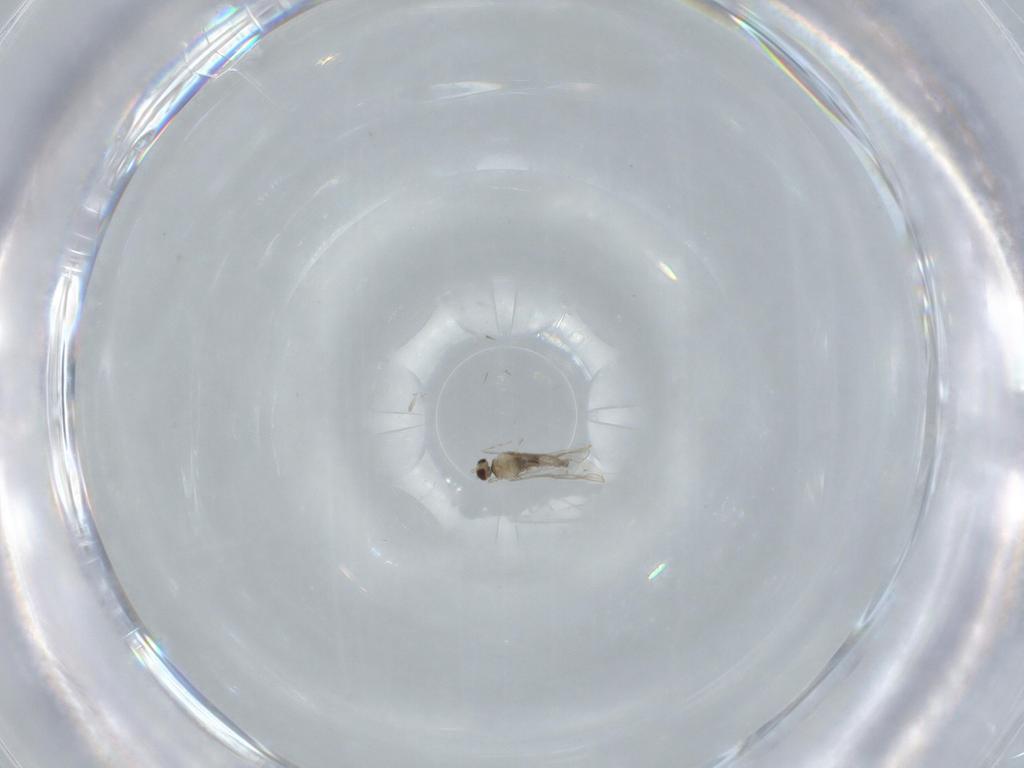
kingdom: Animalia
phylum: Arthropoda
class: Insecta
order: Diptera
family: Cecidomyiidae
